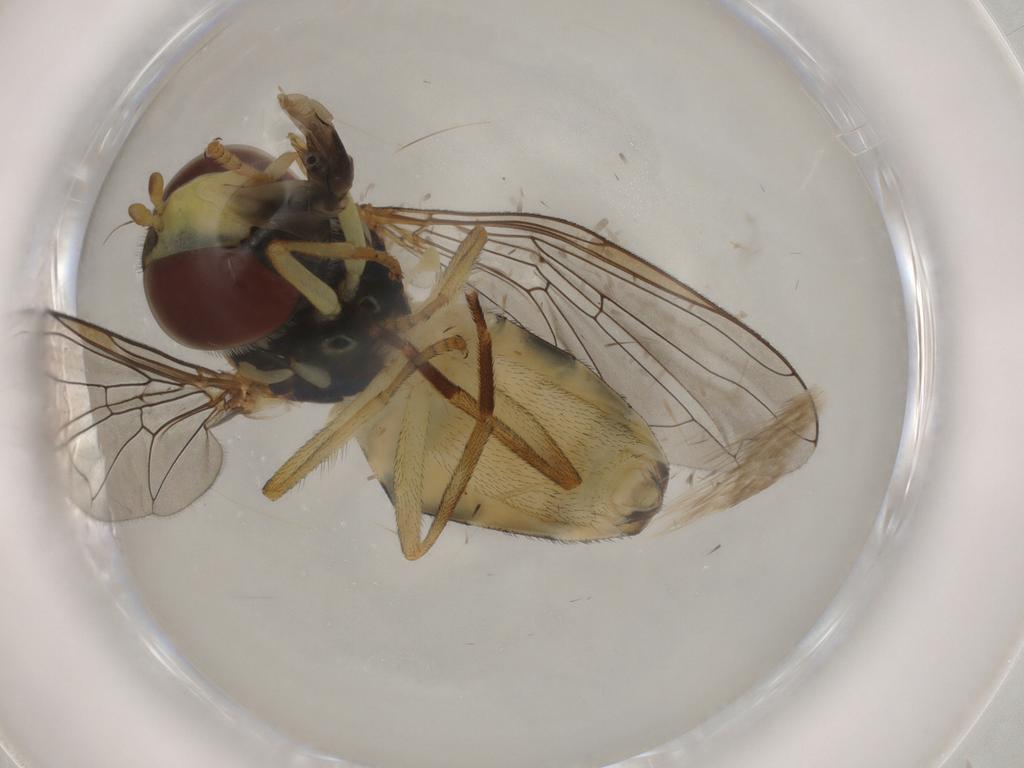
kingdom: Animalia
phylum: Arthropoda
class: Insecta
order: Diptera
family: Syrphidae
